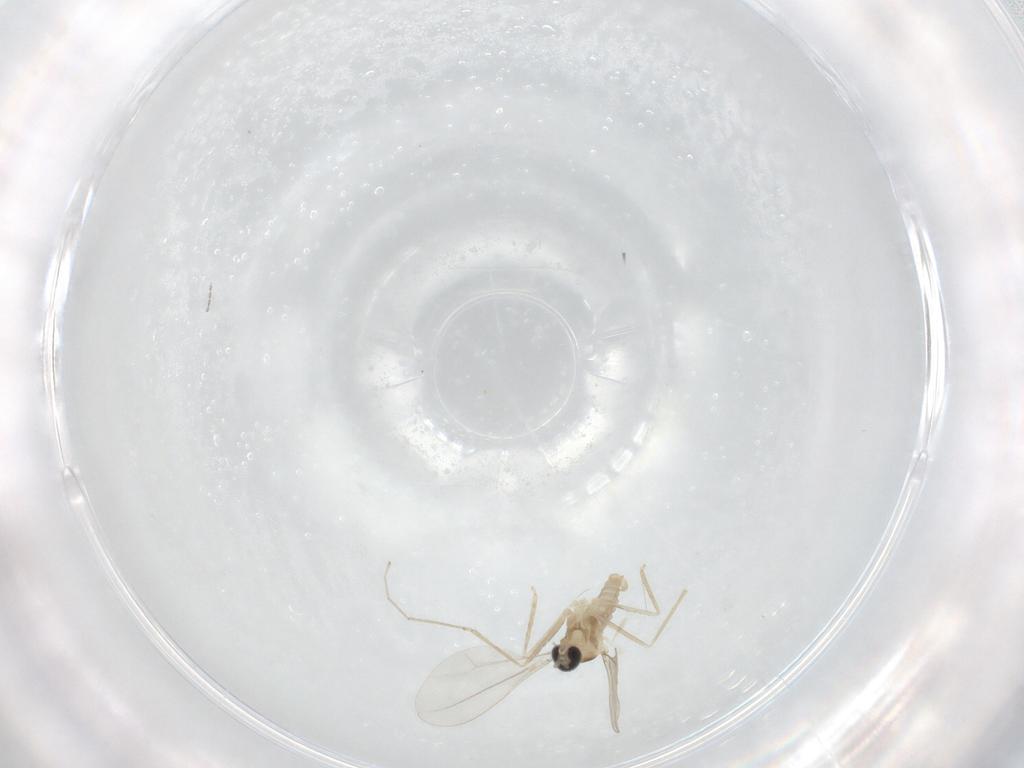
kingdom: Animalia
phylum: Arthropoda
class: Insecta
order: Diptera
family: Cecidomyiidae
